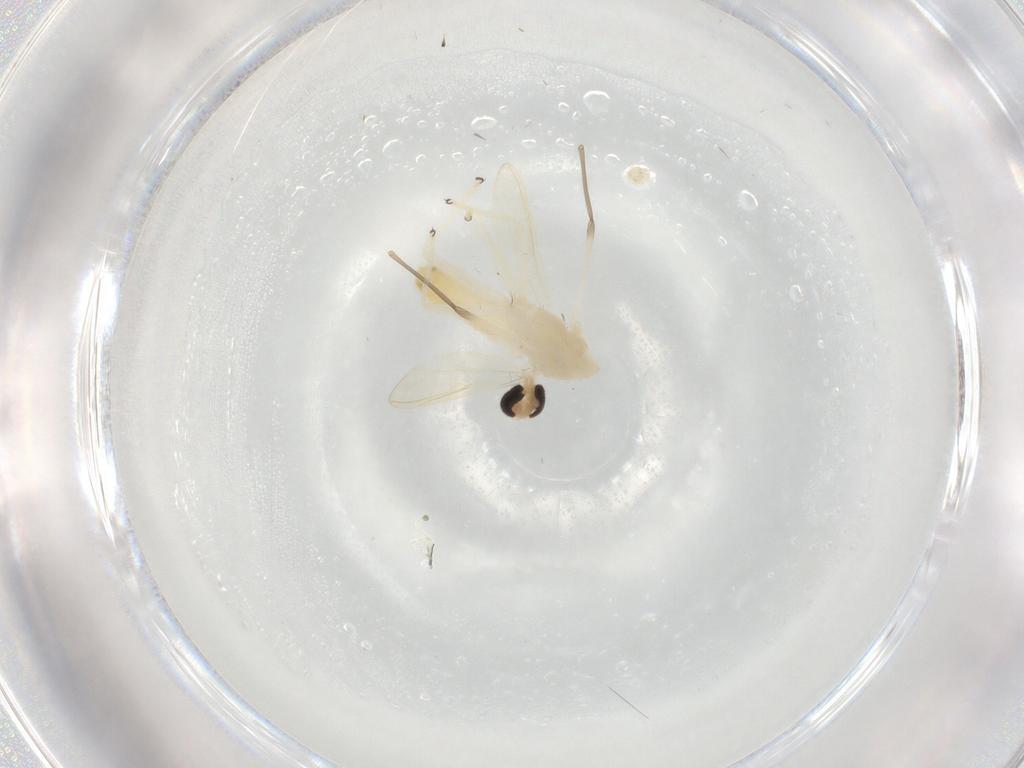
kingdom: Animalia
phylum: Arthropoda
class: Insecta
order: Diptera
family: Chironomidae
